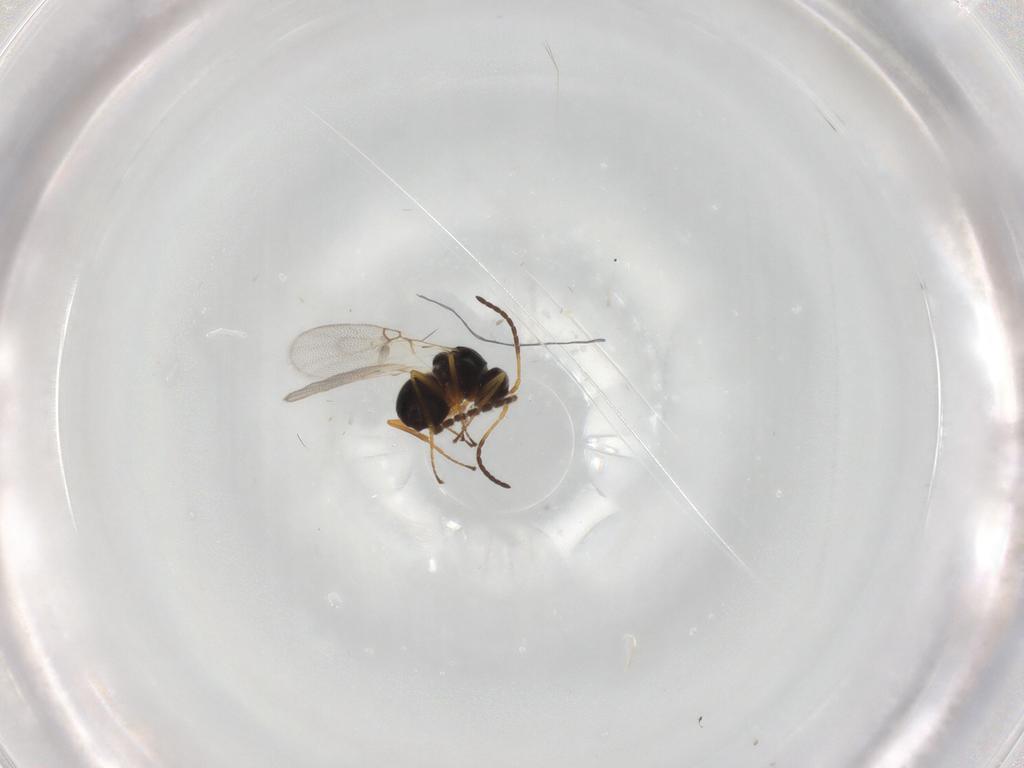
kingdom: Animalia
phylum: Arthropoda
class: Insecta
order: Hymenoptera
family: Figitidae
